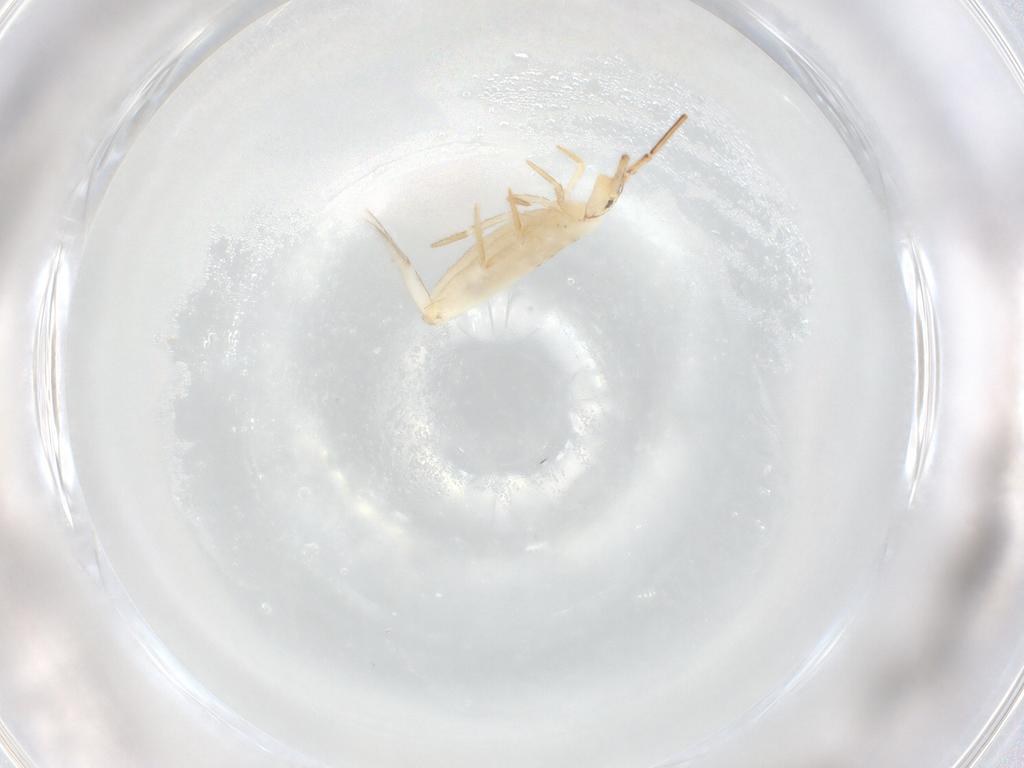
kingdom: Animalia
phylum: Arthropoda
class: Collembola
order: Entomobryomorpha
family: Entomobryidae
